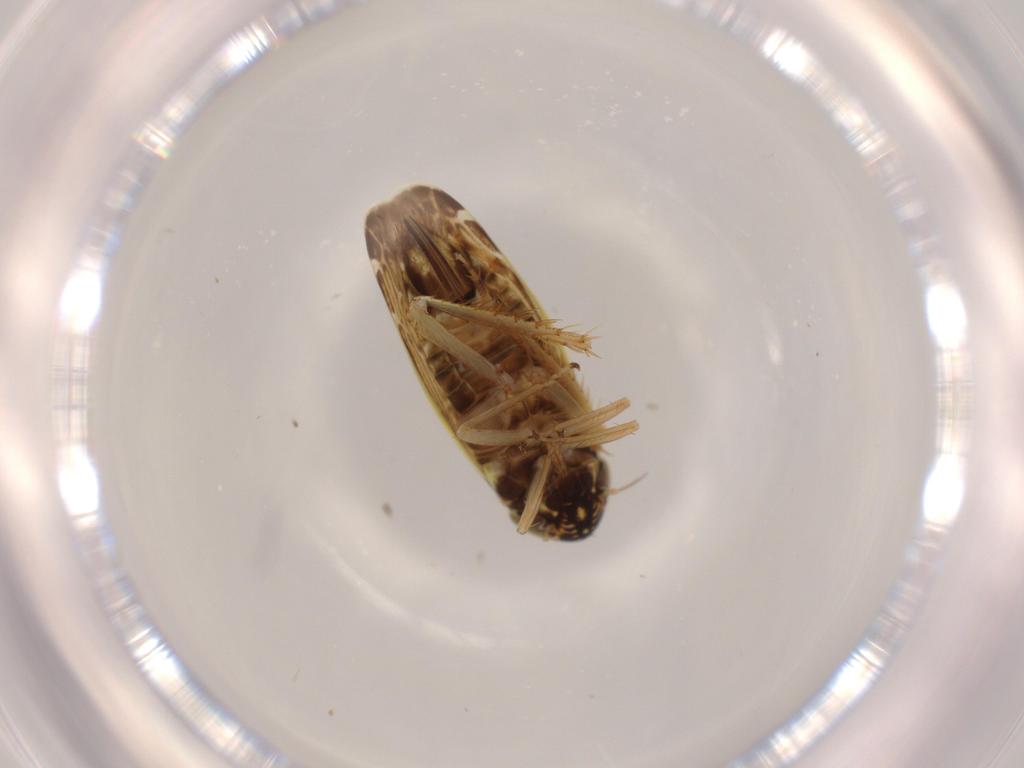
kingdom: Animalia
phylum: Arthropoda
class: Insecta
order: Hemiptera
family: Cicadellidae
